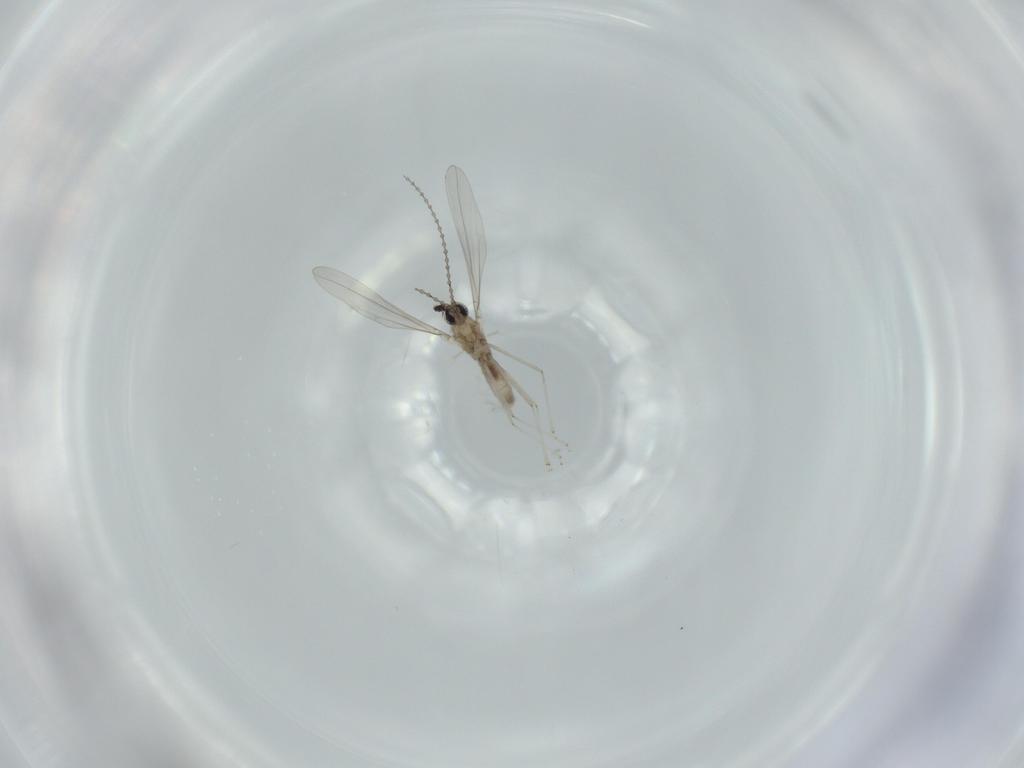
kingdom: Animalia
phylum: Arthropoda
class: Insecta
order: Diptera
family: Cecidomyiidae
